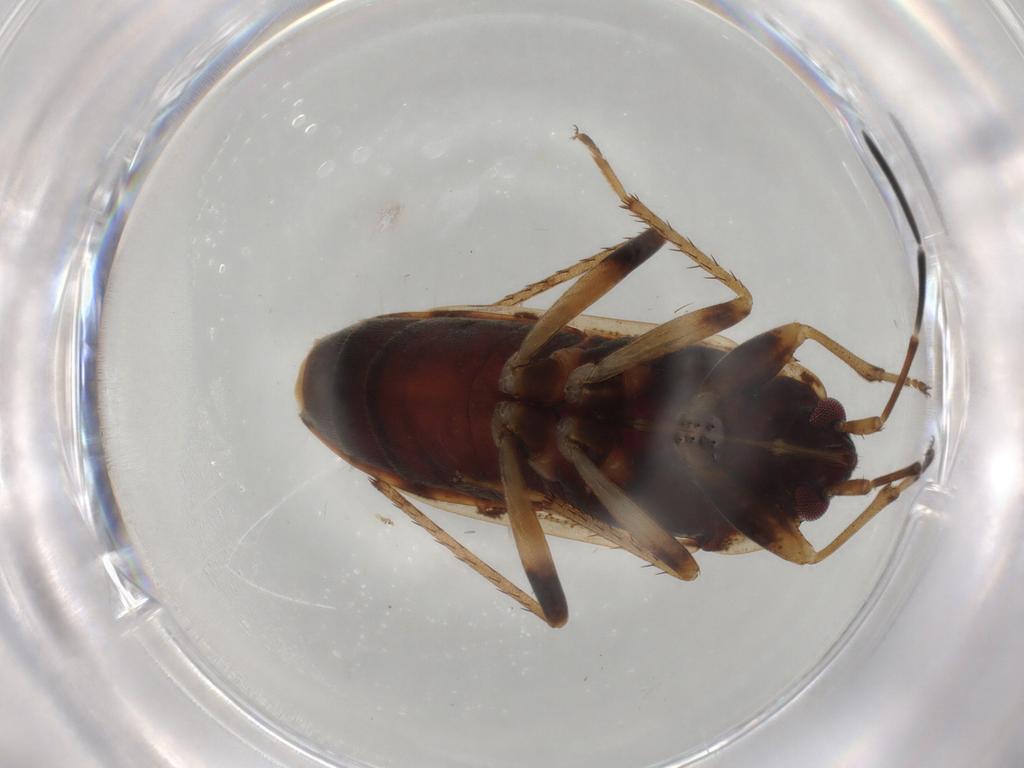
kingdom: Animalia
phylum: Arthropoda
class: Insecta
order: Hemiptera
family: Rhyparochromidae
